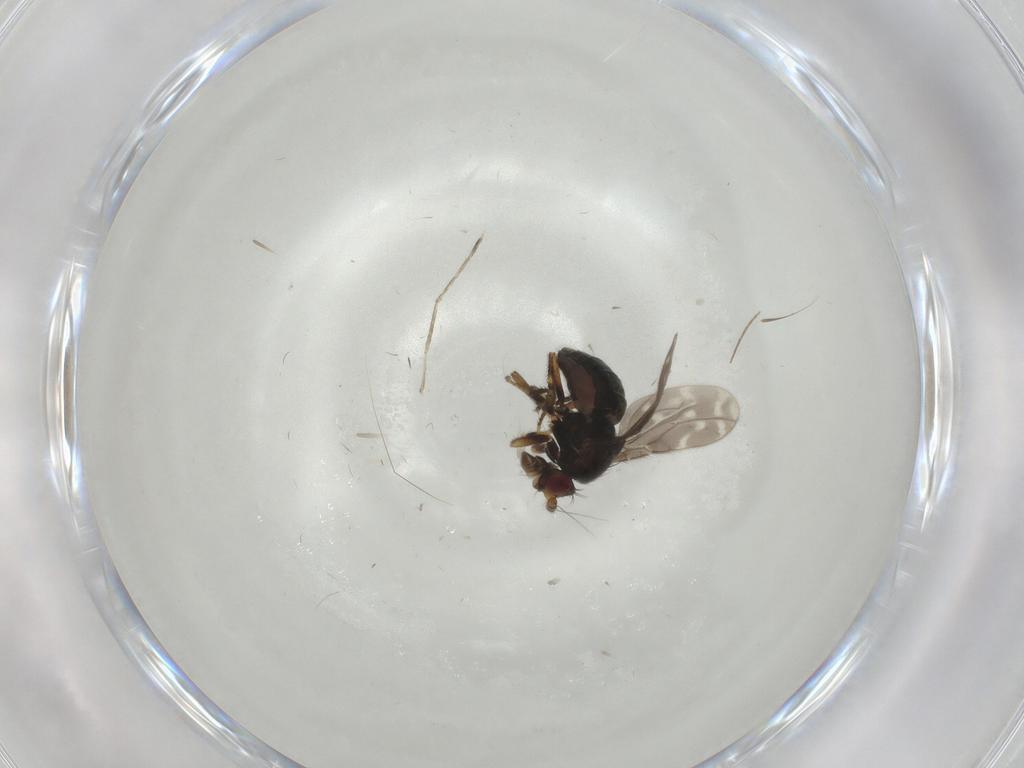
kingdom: Animalia
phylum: Arthropoda
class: Insecta
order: Diptera
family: Sphaeroceridae
